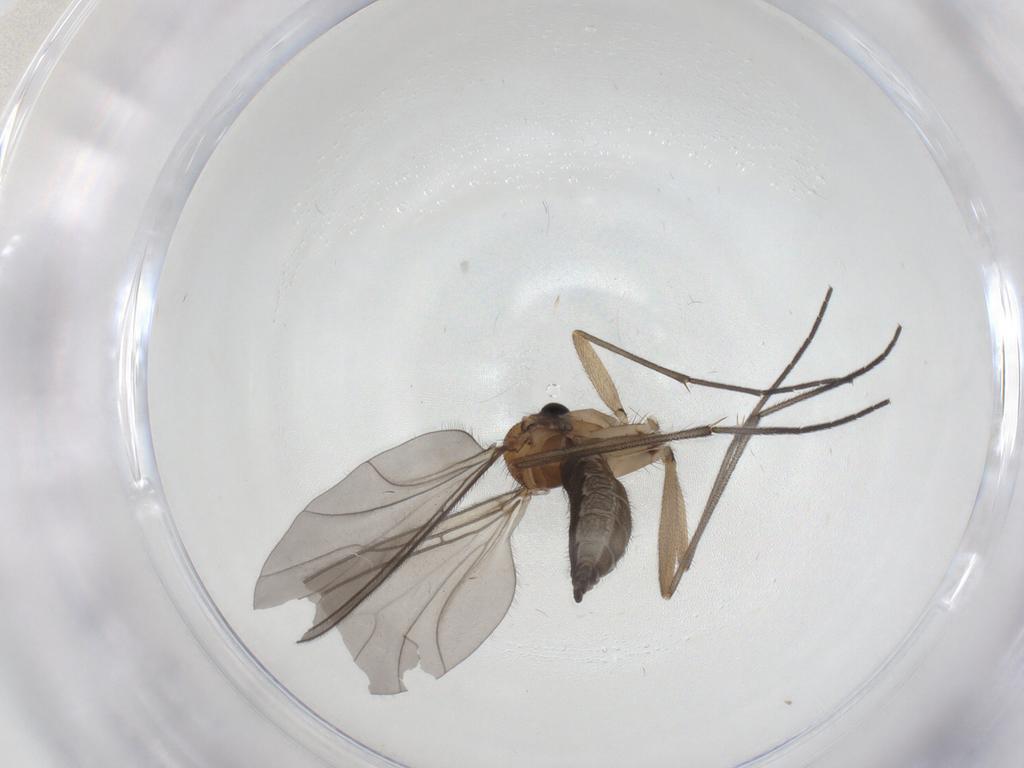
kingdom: Animalia
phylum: Arthropoda
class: Insecta
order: Diptera
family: Sciaridae
